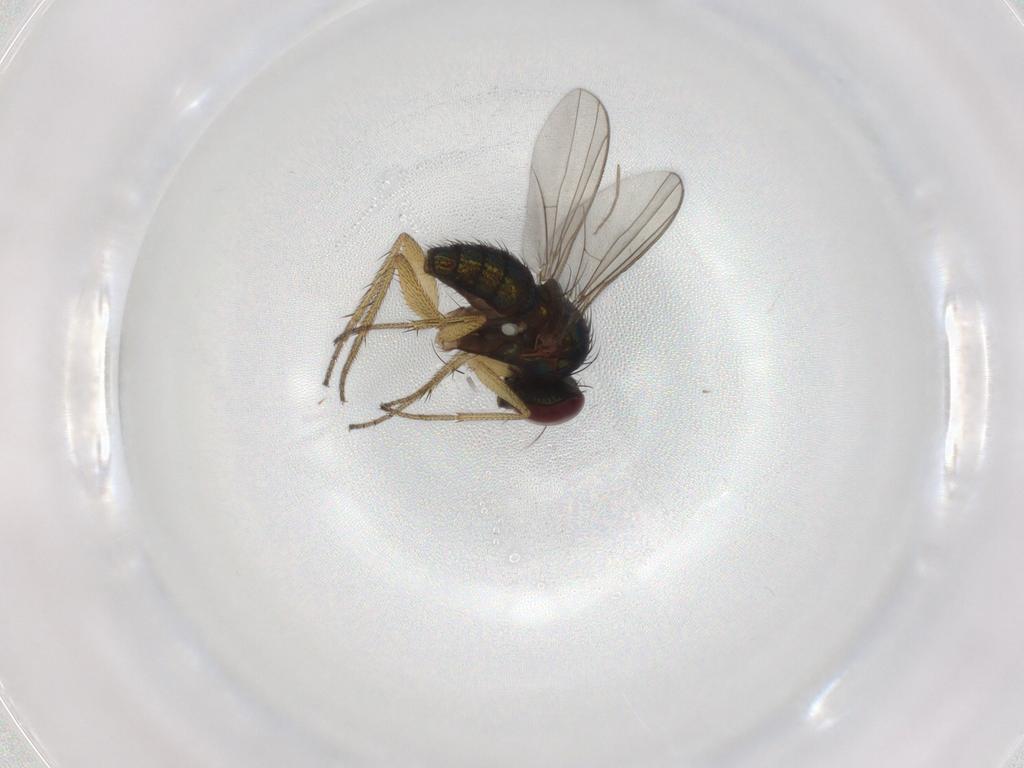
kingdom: Animalia
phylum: Arthropoda
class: Insecta
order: Diptera
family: Dolichopodidae
